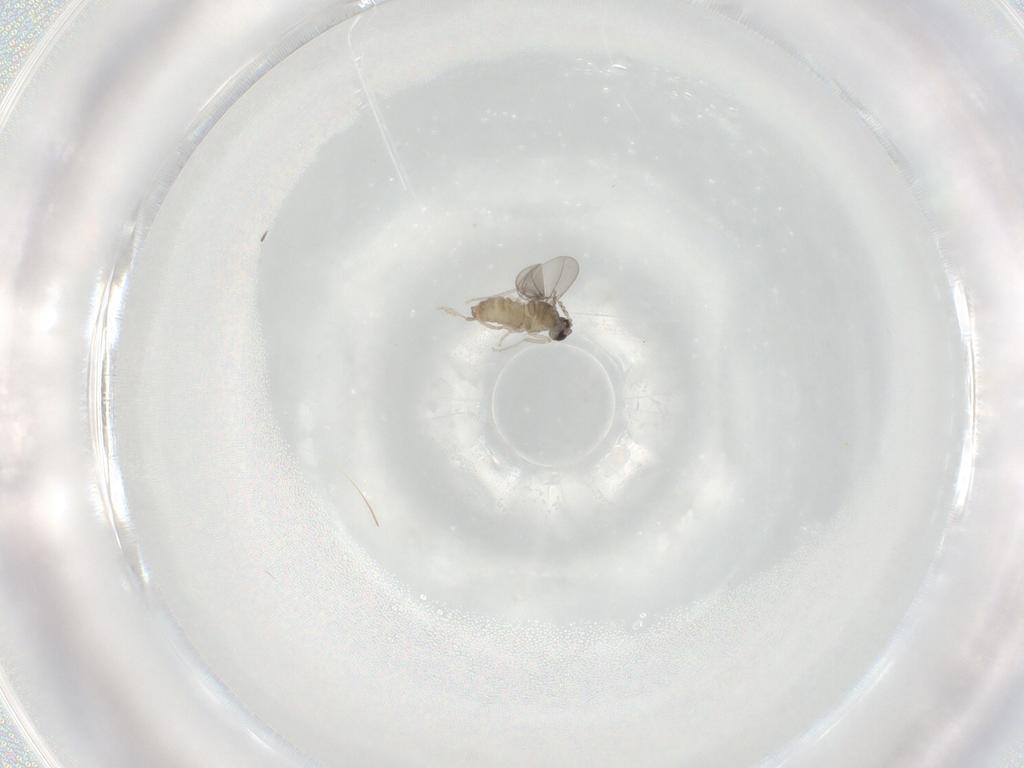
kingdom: Animalia
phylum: Arthropoda
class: Insecta
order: Diptera
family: Cecidomyiidae
